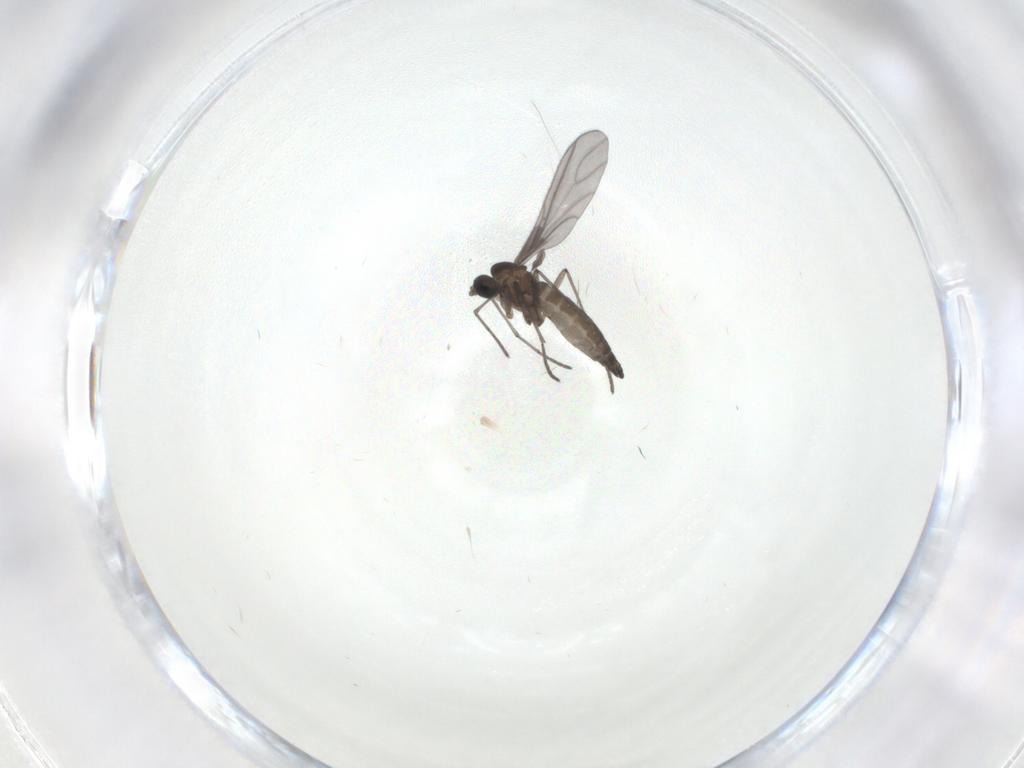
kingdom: Animalia
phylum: Arthropoda
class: Insecta
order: Diptera
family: Sciaridae
